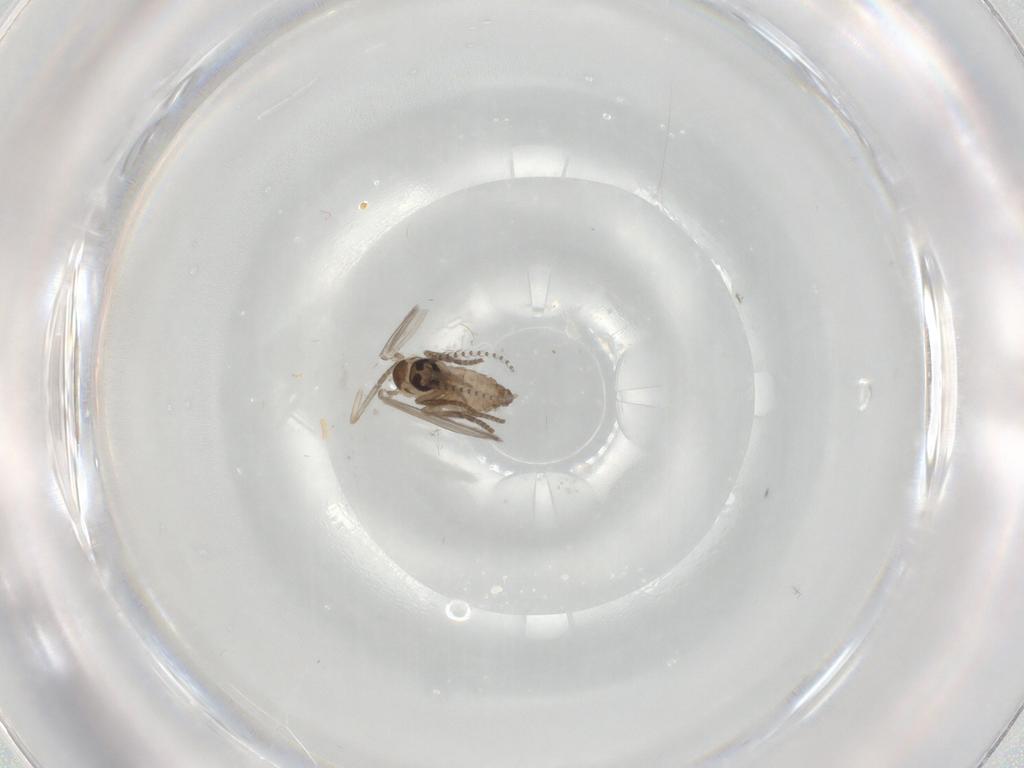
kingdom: Animalia
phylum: Arthropoda
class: Insecta
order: Diptera
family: Psychodidae
